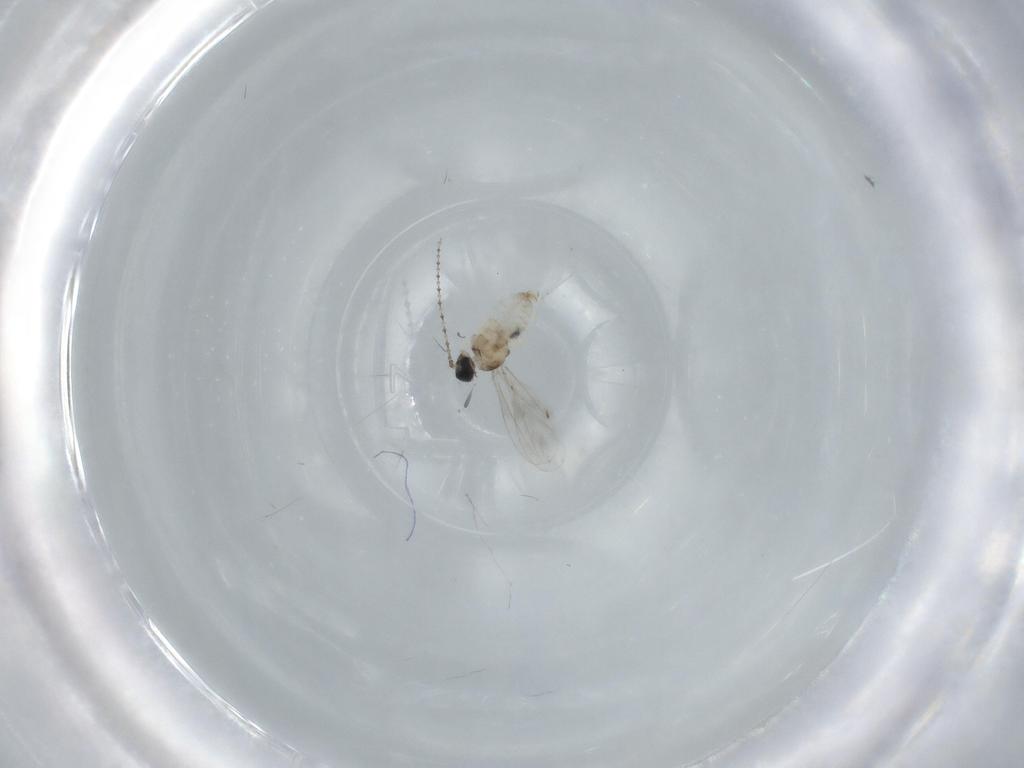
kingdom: Animalia
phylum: Arthropoda
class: Insecta
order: Diptera
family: Cecidomyiidae
